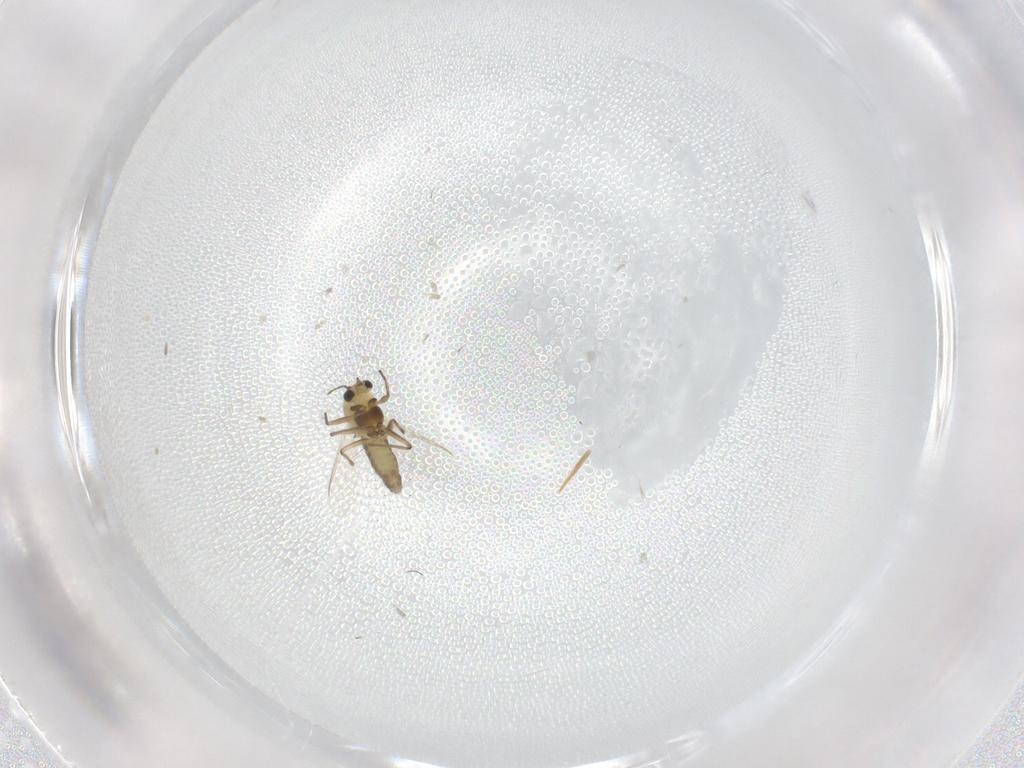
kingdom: Animalia
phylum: Arthropoda
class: Insecta
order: Diptera
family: Chironomidae
